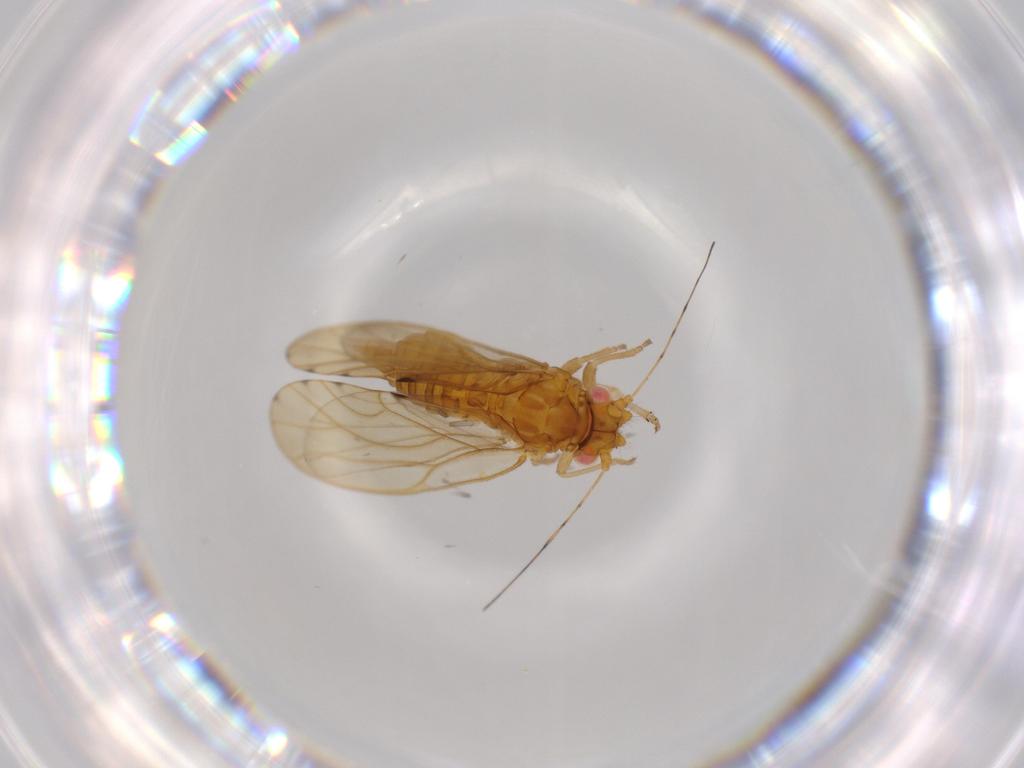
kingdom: Animalia
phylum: Arthropoda
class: Insecta
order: Hemiptera
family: Psylloidea_incertae_sedis
